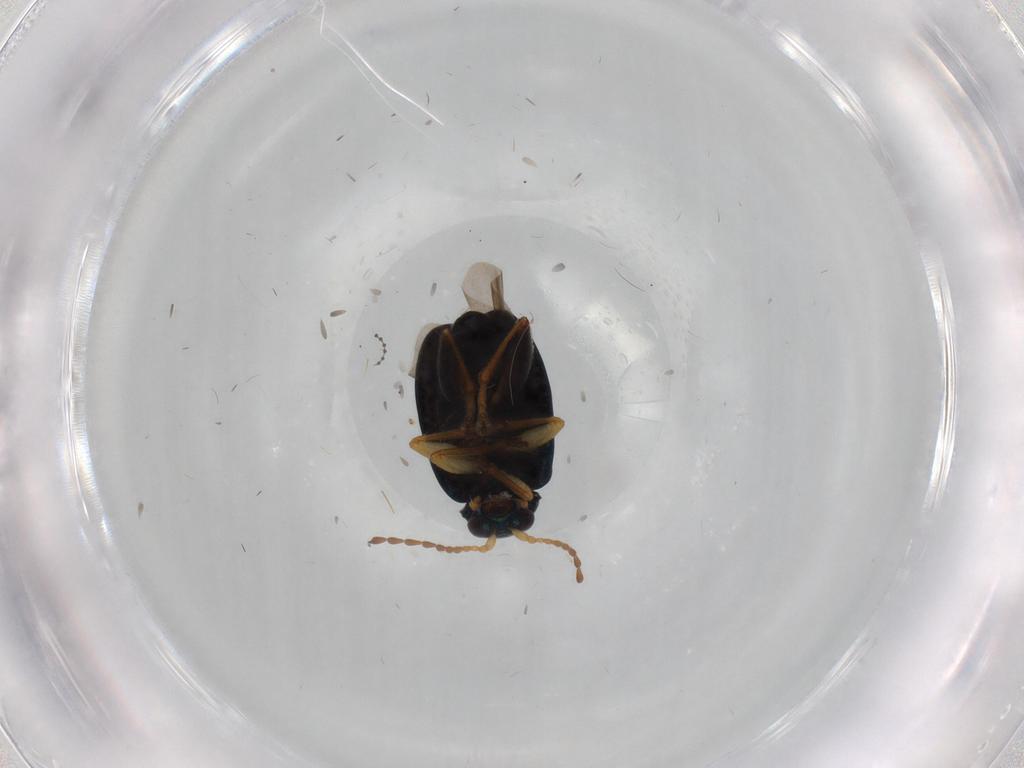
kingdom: Animalia
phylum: Arthropoda
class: Insecta
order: Coleoptera
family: Chrysomelidae
